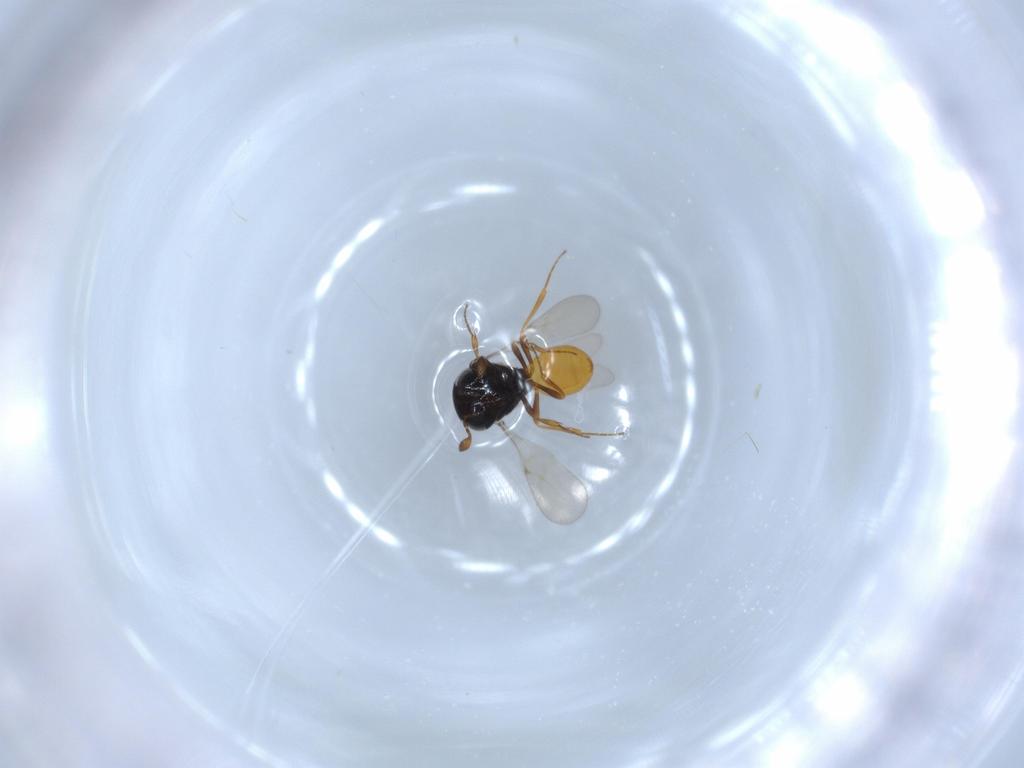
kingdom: Animalia
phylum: Arthropoda
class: Insecta
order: Hymenoptera
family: Scelionidae
